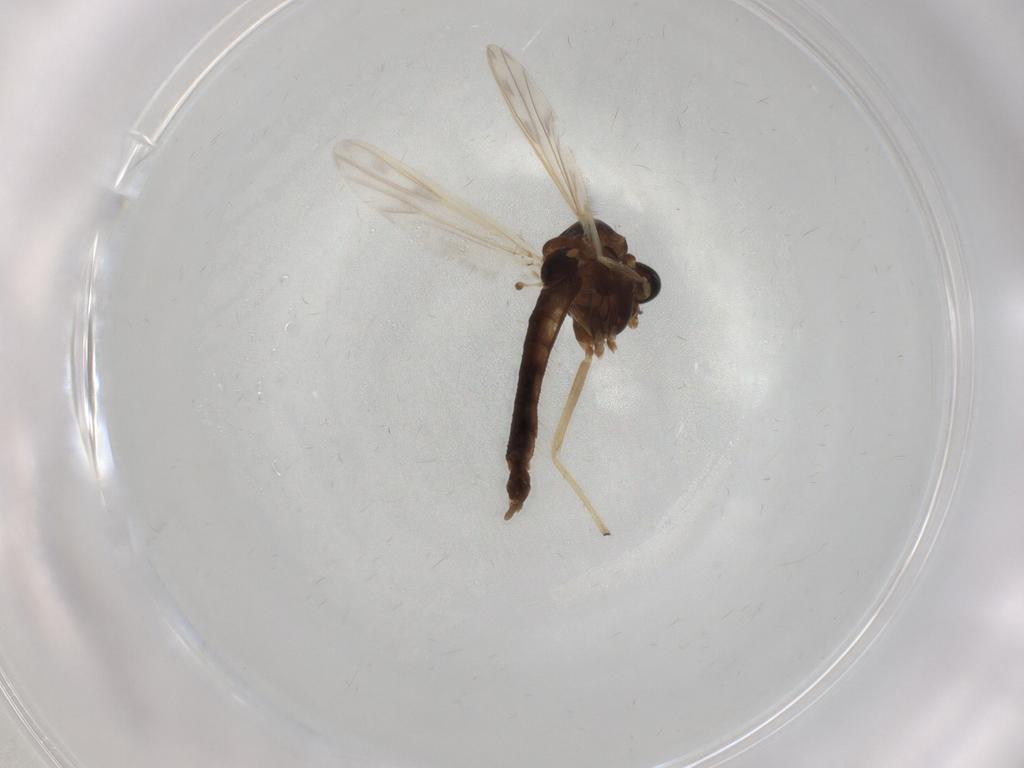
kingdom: Animalia
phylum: Arthropoda
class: Insecta
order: Diptera
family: Chironomidae
